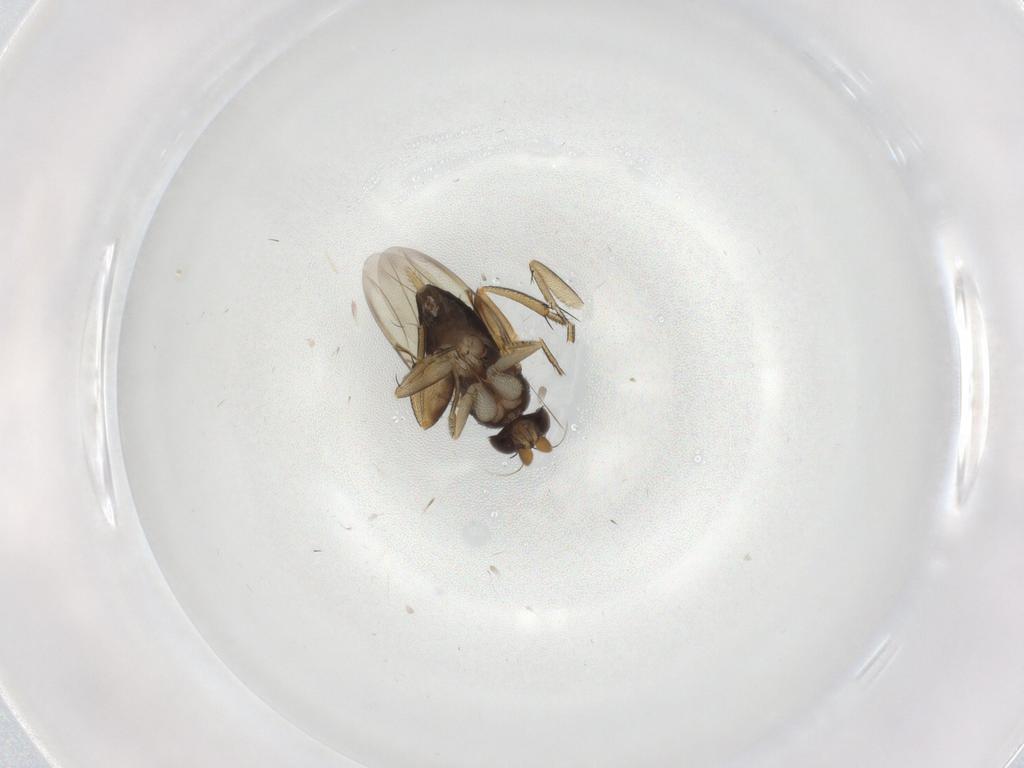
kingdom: Animalia
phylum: Arthropoda
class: Insecta
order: Diptera
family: Phoridae
